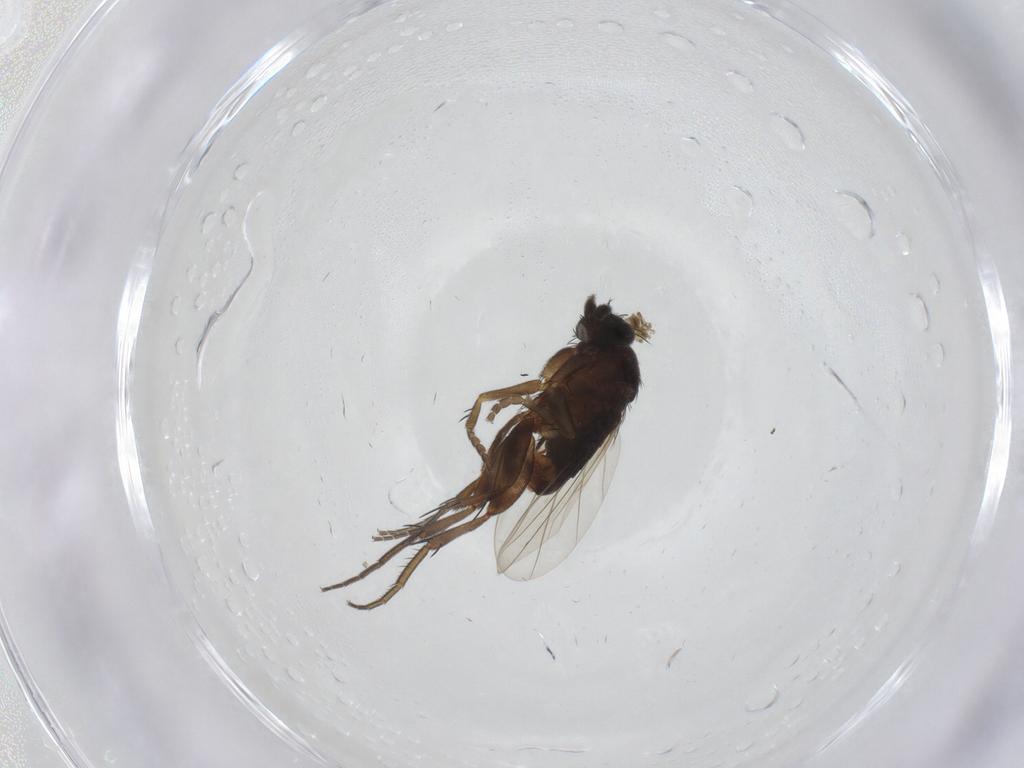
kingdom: Animalia
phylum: Arthropoda
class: Insecta
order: Diptera
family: Phoridae
